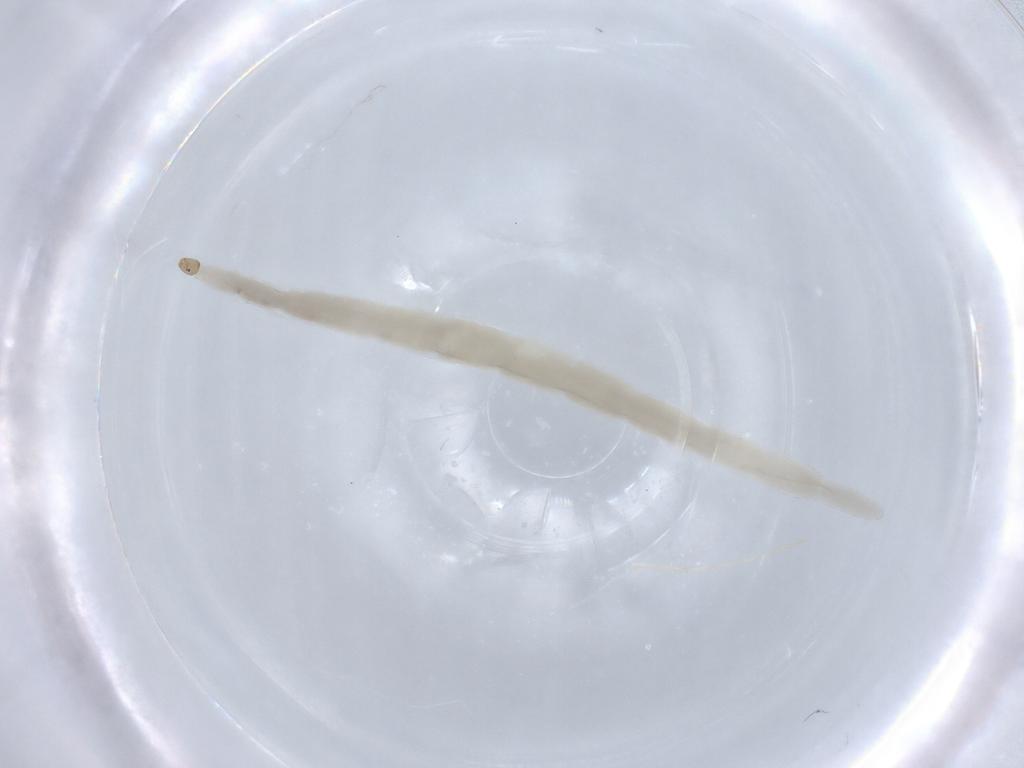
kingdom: Animalia
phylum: Arthropoda
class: Insecta
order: Diptera
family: Ceratopogonidae
